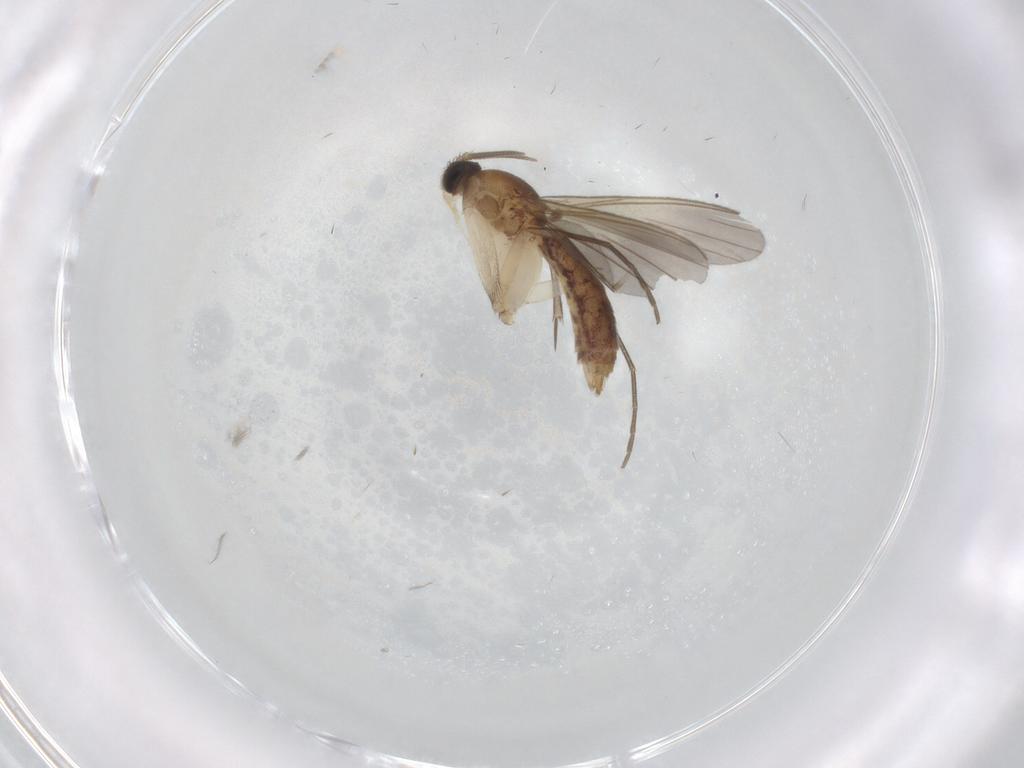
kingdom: Animalia
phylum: Arthropoda
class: Insecta
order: Diptera
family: Mycetophilidae
